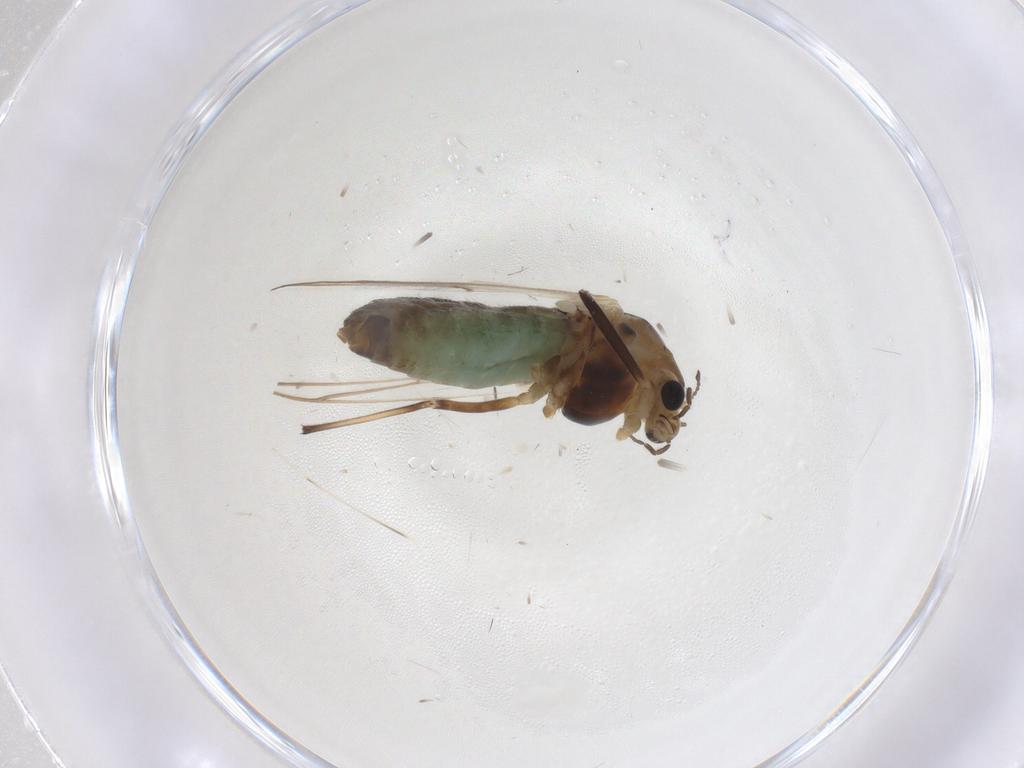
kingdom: Animalia
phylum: Arthropoda
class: Insecta
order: Diptera
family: Chironomidae
